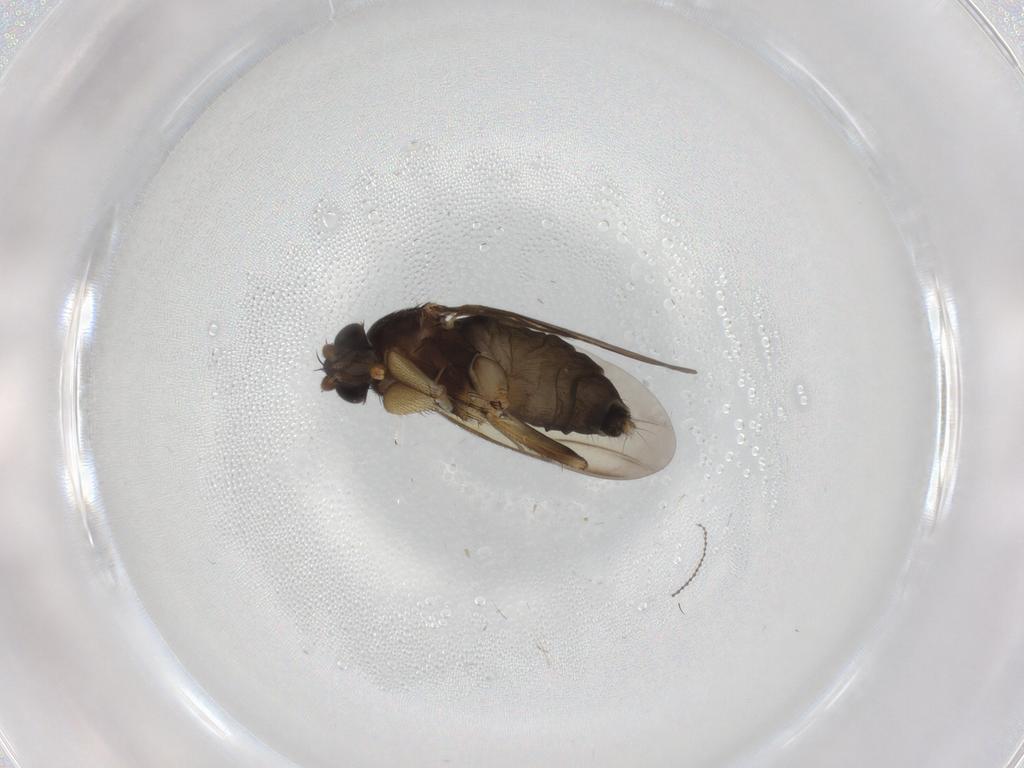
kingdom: Animalia
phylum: Arthropoda
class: Insecta
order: Diptera
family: Phoridae
